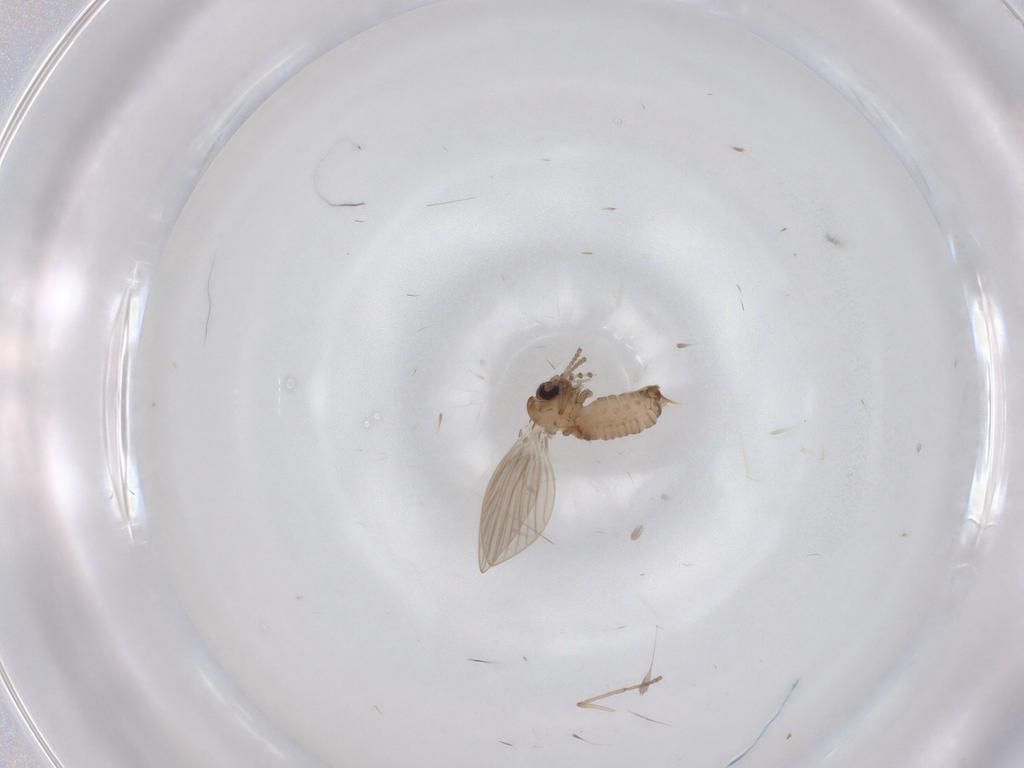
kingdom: Animalia
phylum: Arthropoda
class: Insecta
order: Diptera
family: Psychodidae
